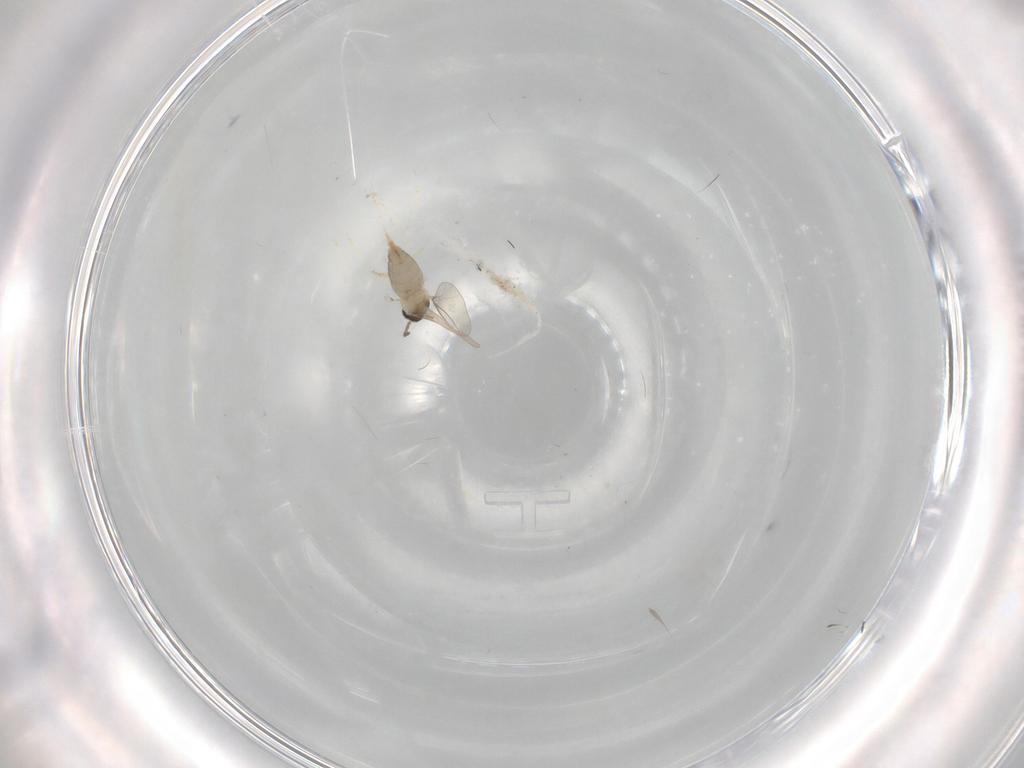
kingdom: Animalia
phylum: Arthropoda
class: Insecta
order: Diptera
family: Cecidomyiidae
